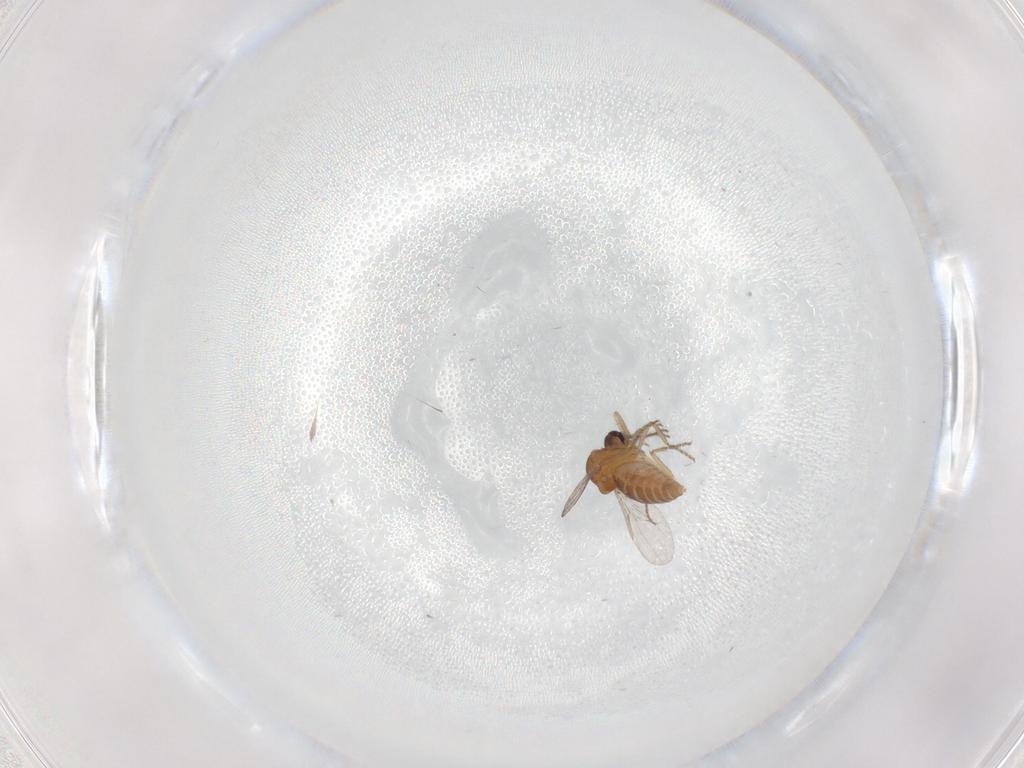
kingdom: Animalia
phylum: Arthropoda
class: Insecta
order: Diptera
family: Ceratopogonidae
